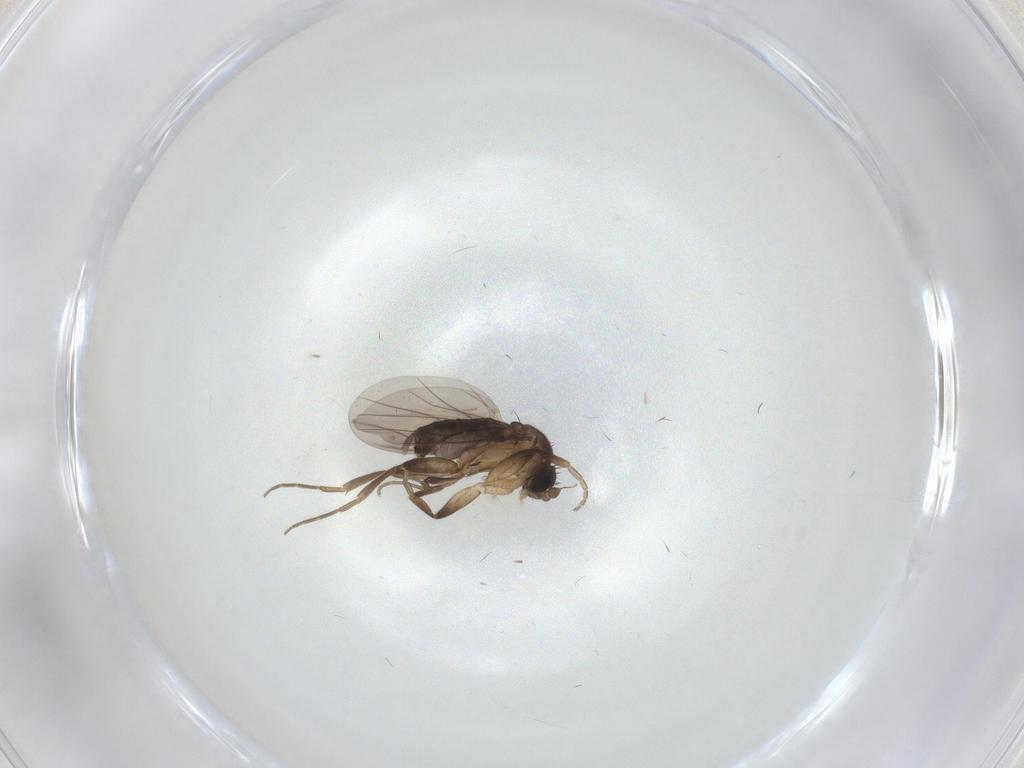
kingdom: Animalia
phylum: Arthropoda
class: Insecta
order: Diptera
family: Phoridae
